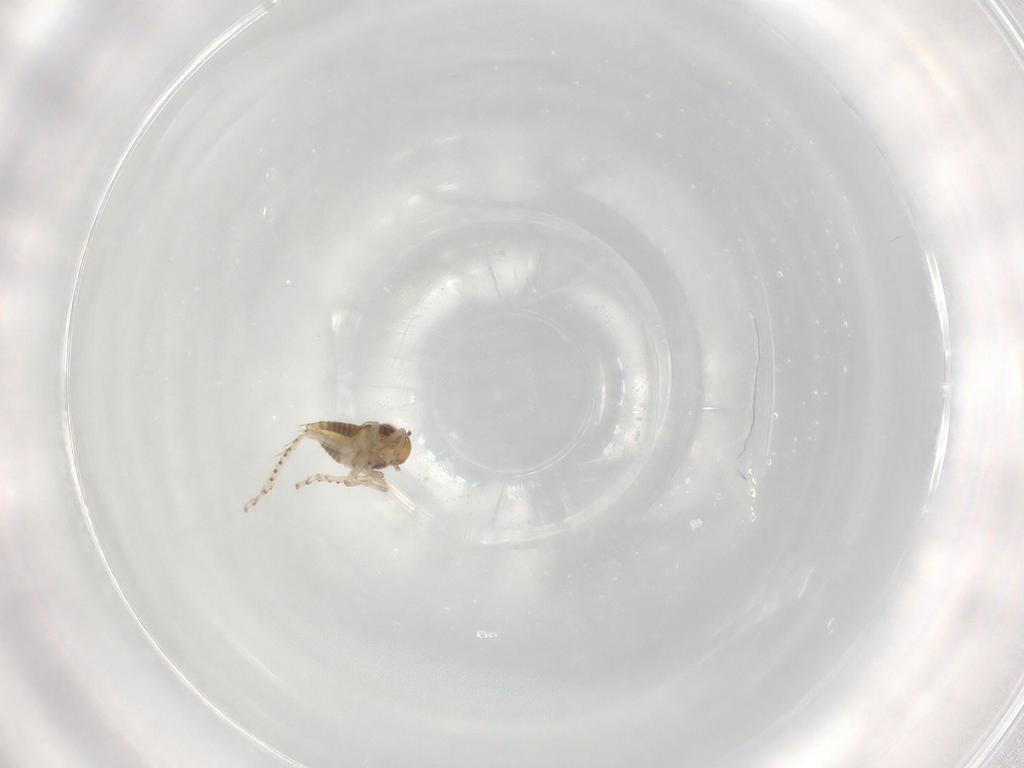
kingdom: Animalia
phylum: Arthropoda
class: Insecta
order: Hemiptera
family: Cicadellidae
